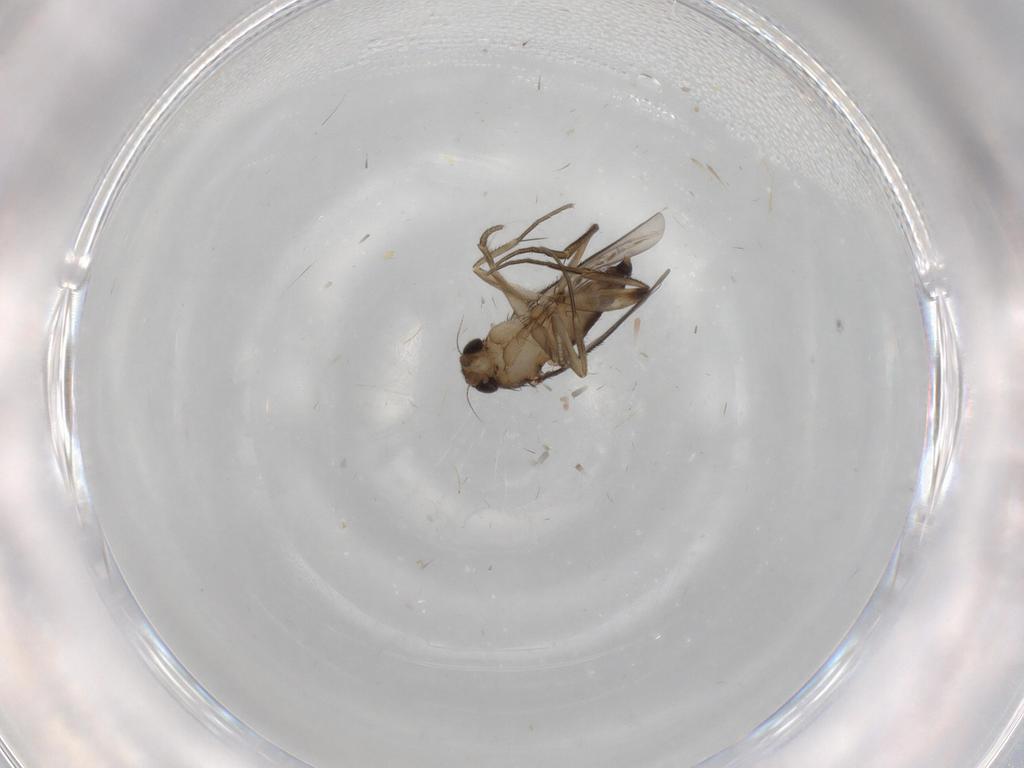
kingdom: Animalia
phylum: Arthropoda
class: Insecta
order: Diptera
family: Phoridae
